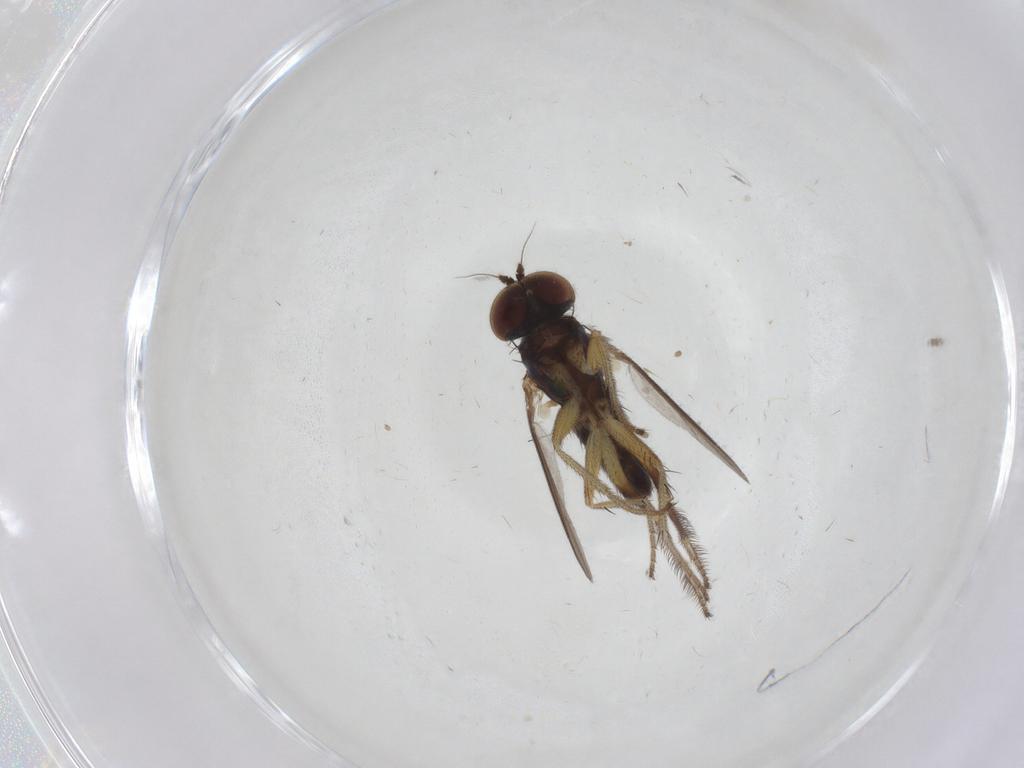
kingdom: Animalia
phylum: Arthropoda
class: Insecta
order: Diptera
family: Chironomidae
